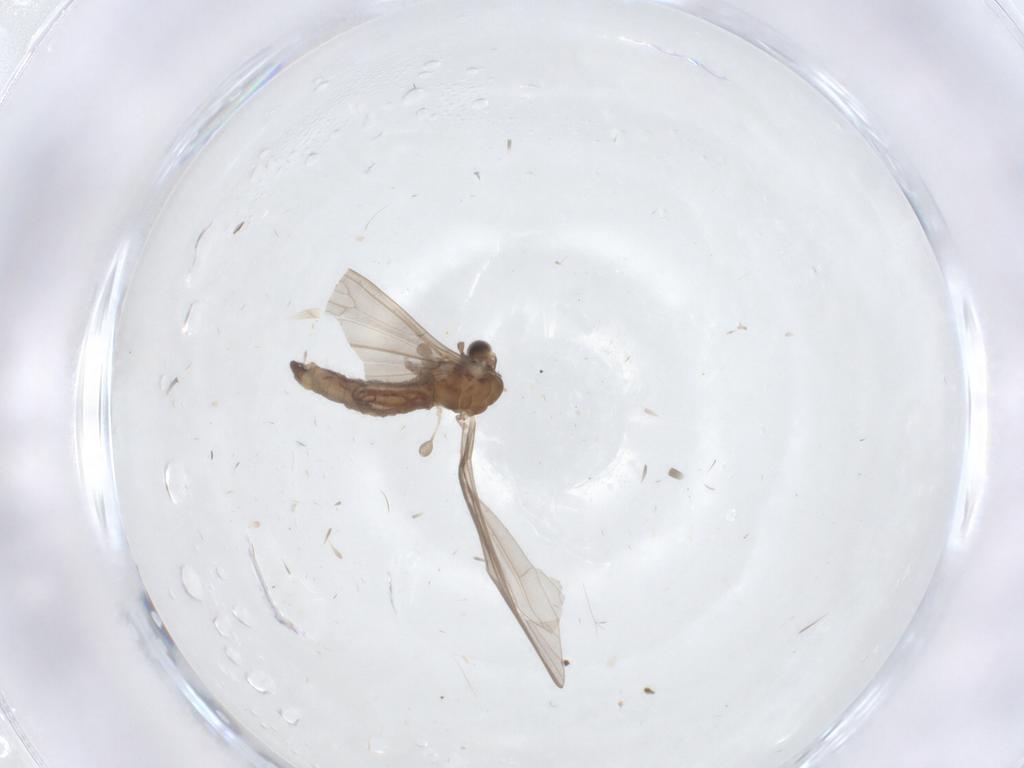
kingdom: Animalia
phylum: Arthropoda
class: Insecta
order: Diptera
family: Limoniidae
